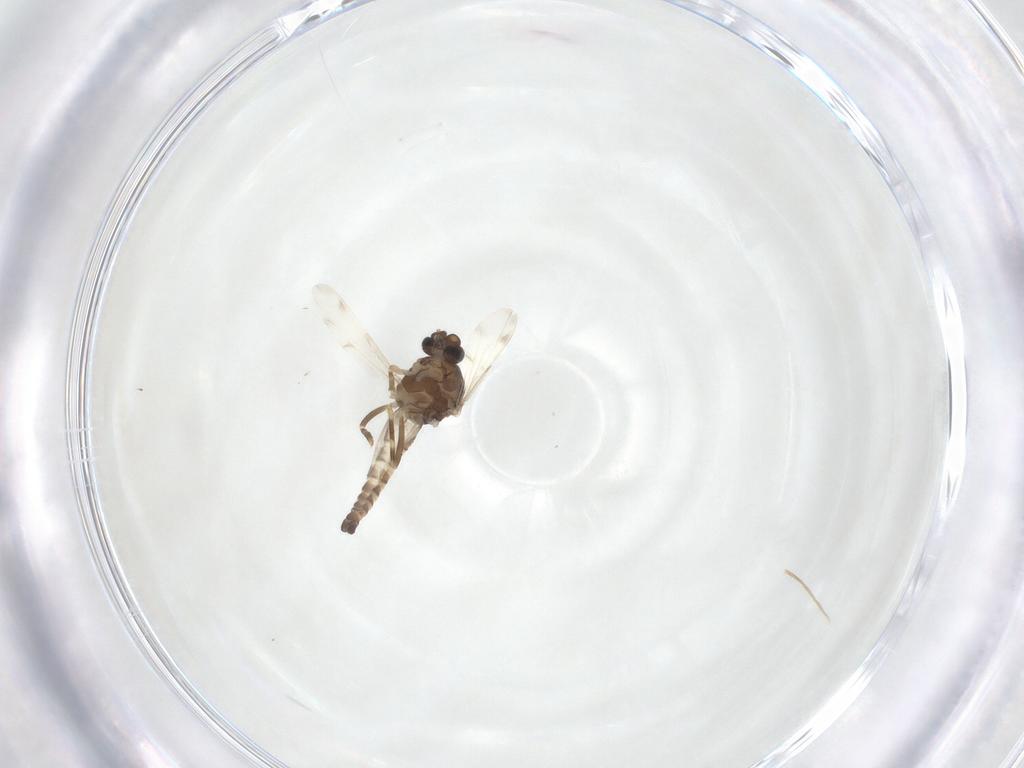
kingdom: Animalia
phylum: Arthropoda
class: Insecta
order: Diptera
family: Ceratopogonidae
